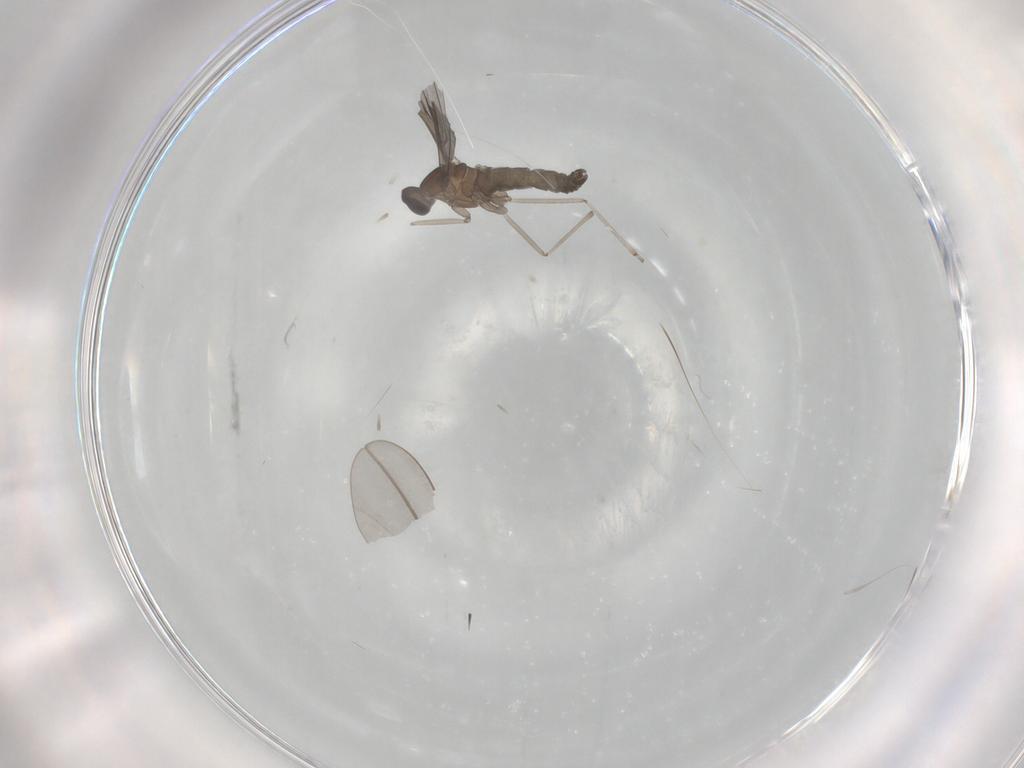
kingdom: Animalia
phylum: Arthropoda
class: Insecta
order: Diptera
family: Cecidomyiidae
